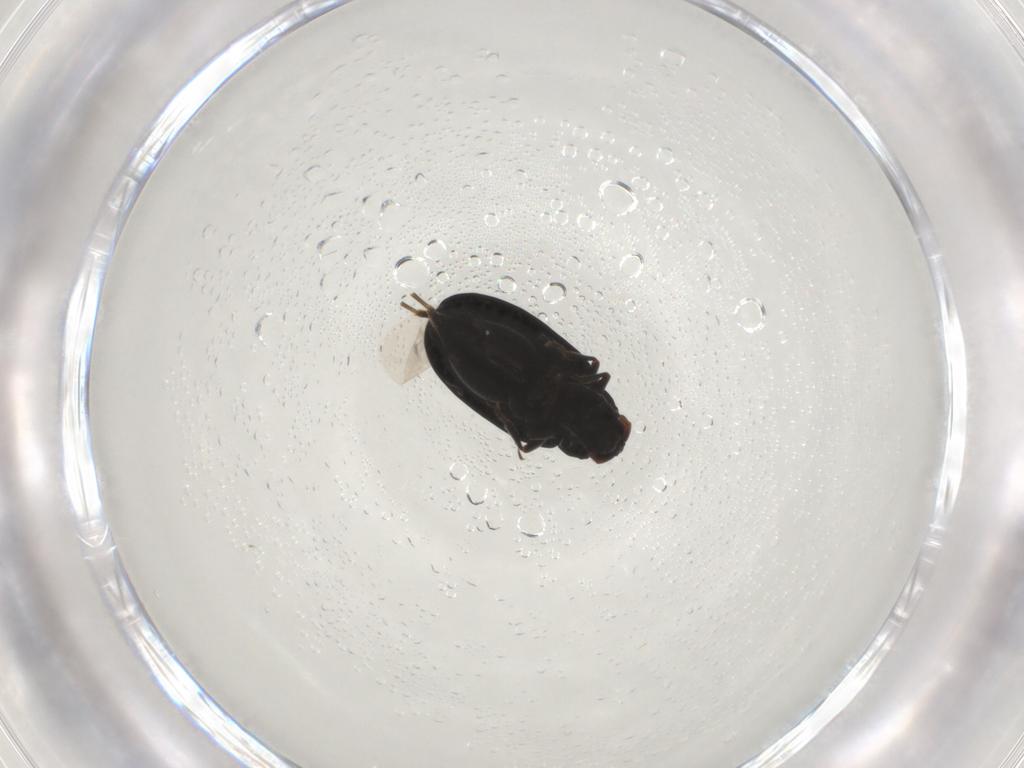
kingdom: Animalia
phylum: Arthropoda
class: Insecta
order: Coleoptera
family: Chrysomelidae
